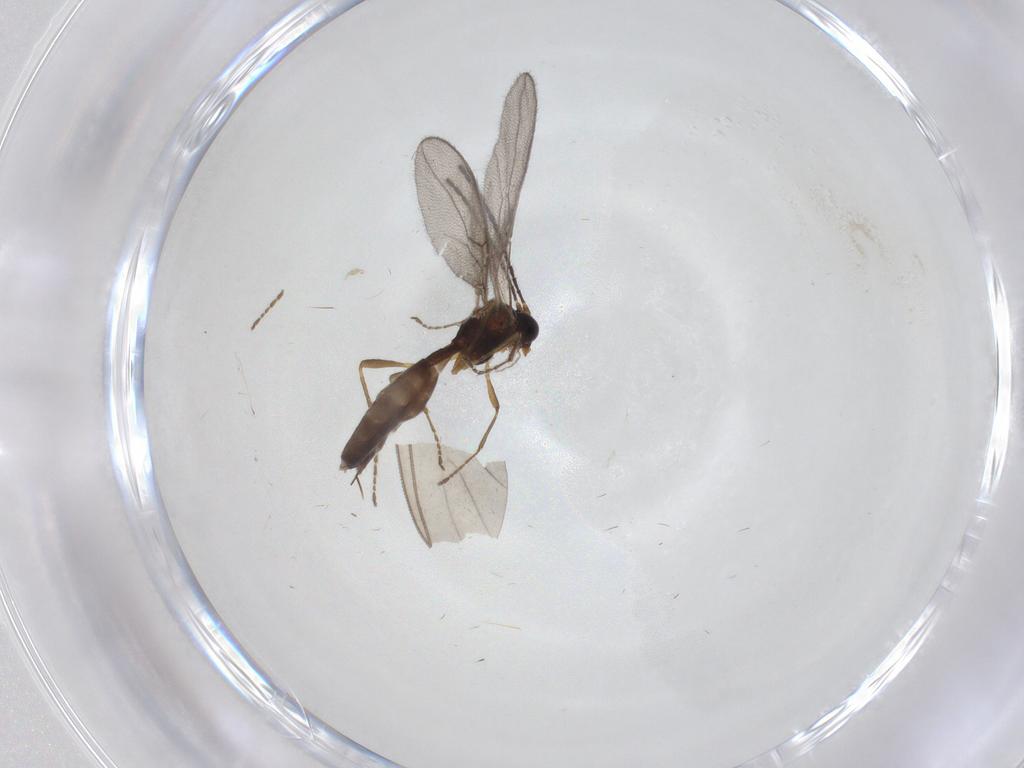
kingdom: Animalia
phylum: Arthropoda
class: Insecta
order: Hymenoptera
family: Braconidae
